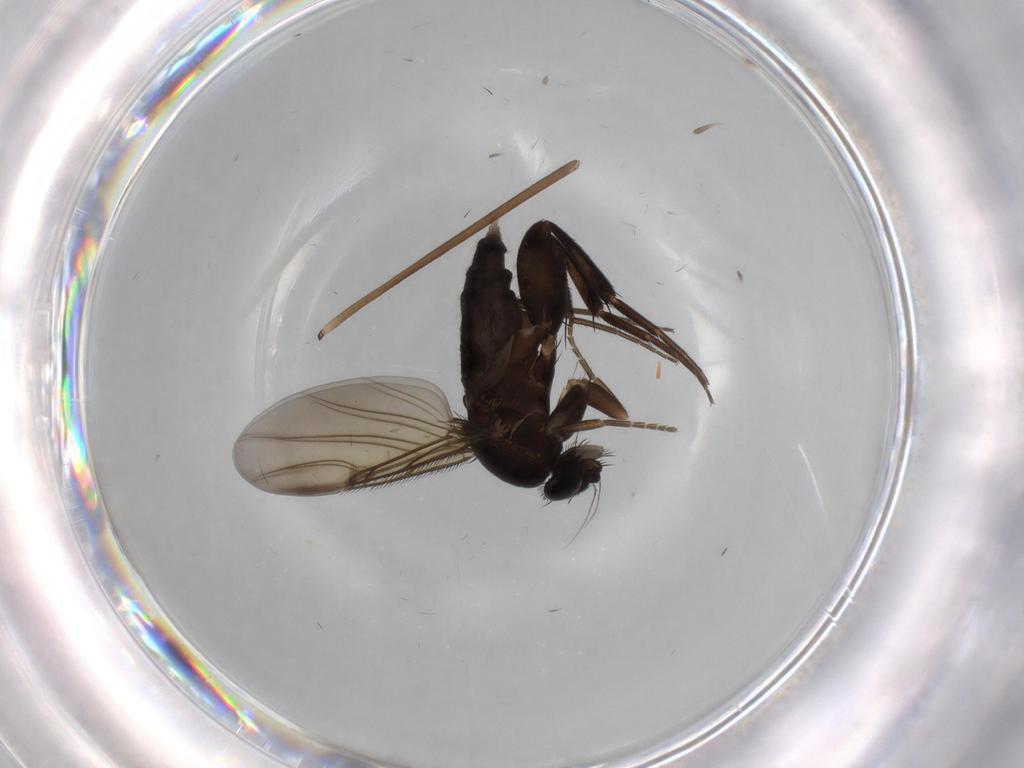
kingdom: Animalia
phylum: Arthropoda
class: Insecta
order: Diptera
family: Phoridae
